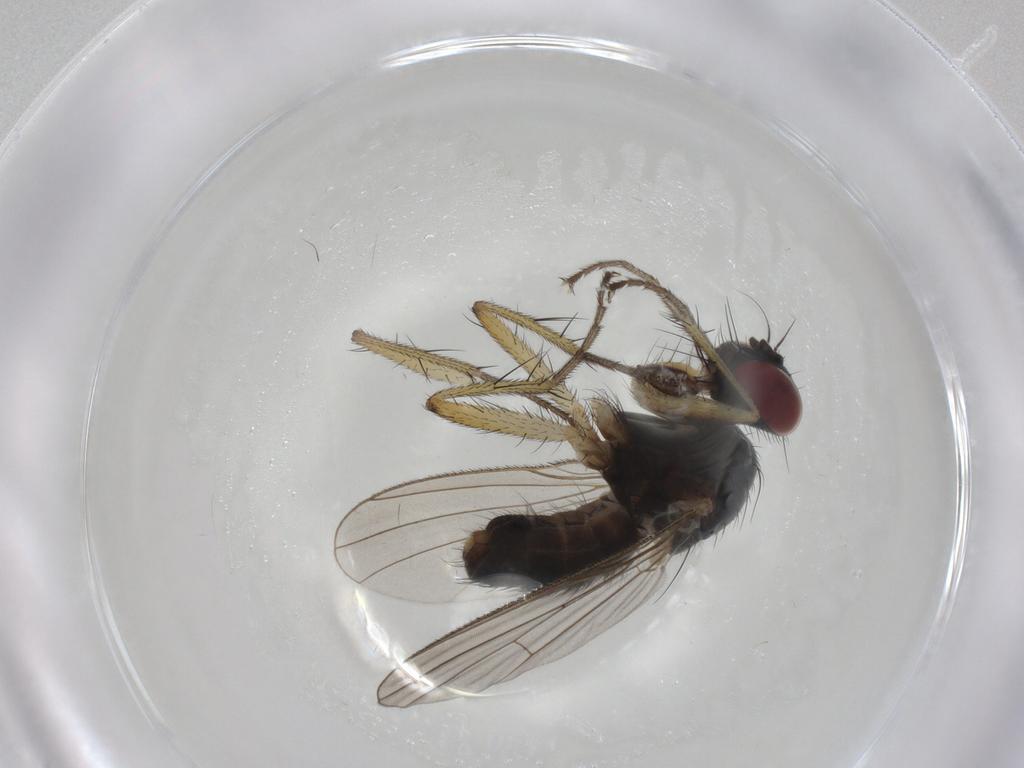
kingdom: Animalia
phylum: Arthropoda
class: Insecta
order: Diptera
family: Muscidae
